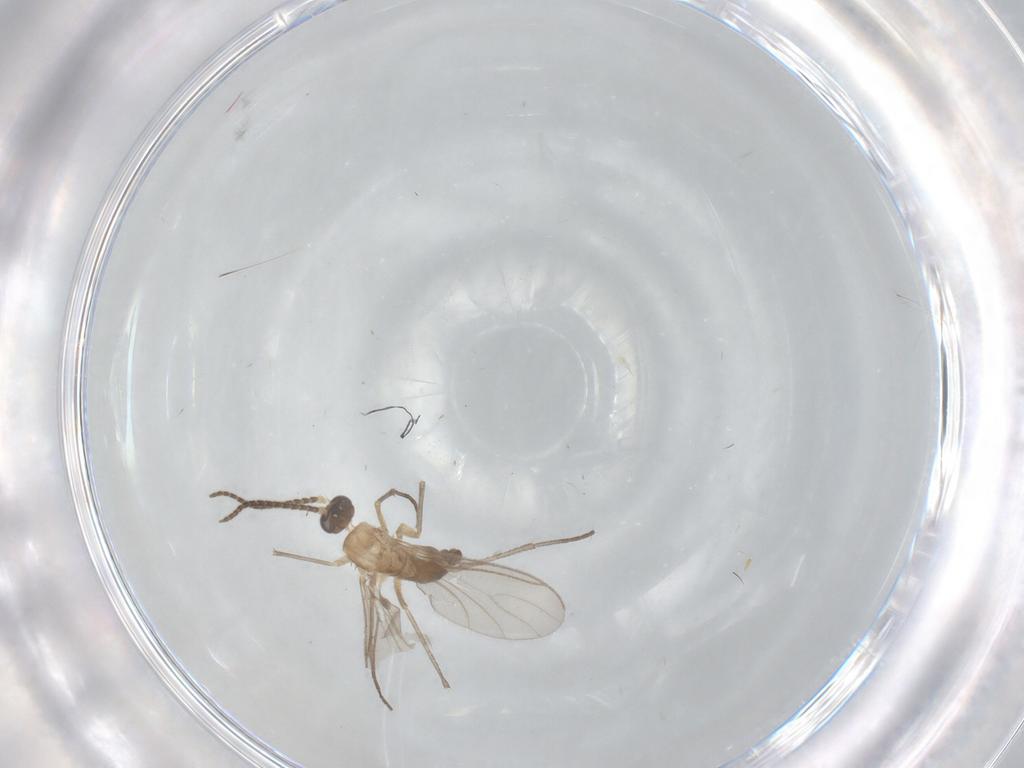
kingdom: Animalia
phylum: Arthropoda
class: Insecta
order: Diptera
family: Sciaridae
